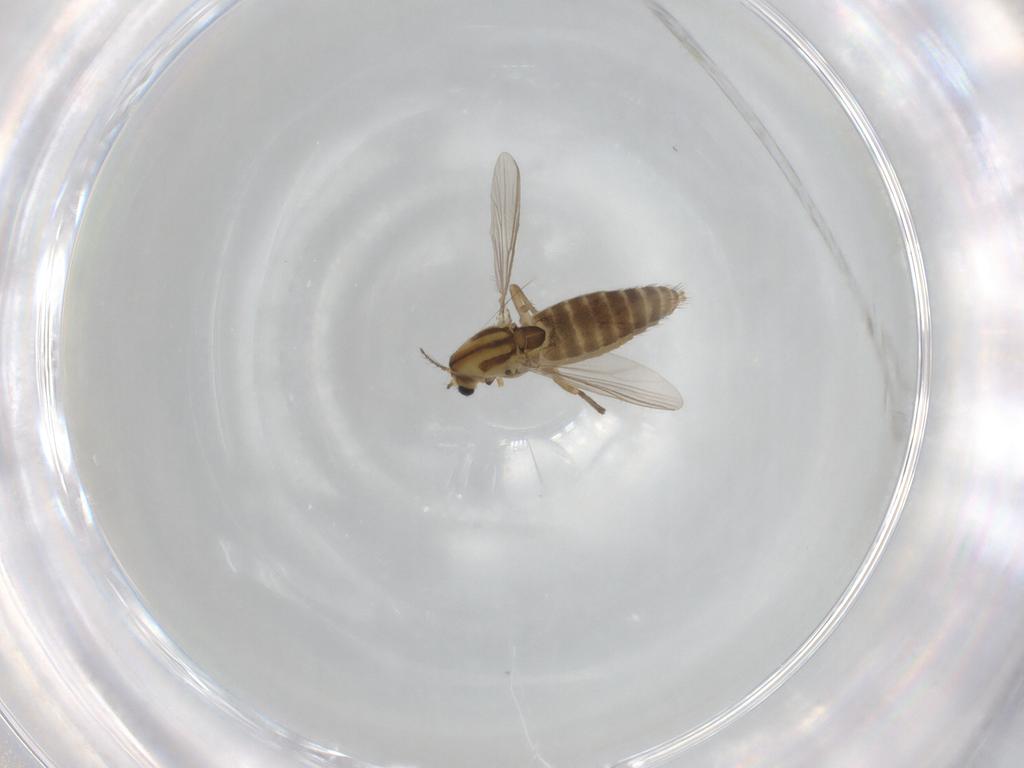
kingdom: Animalia
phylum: Arthropoda
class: Insecta
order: Diptera
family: Chironomidae
